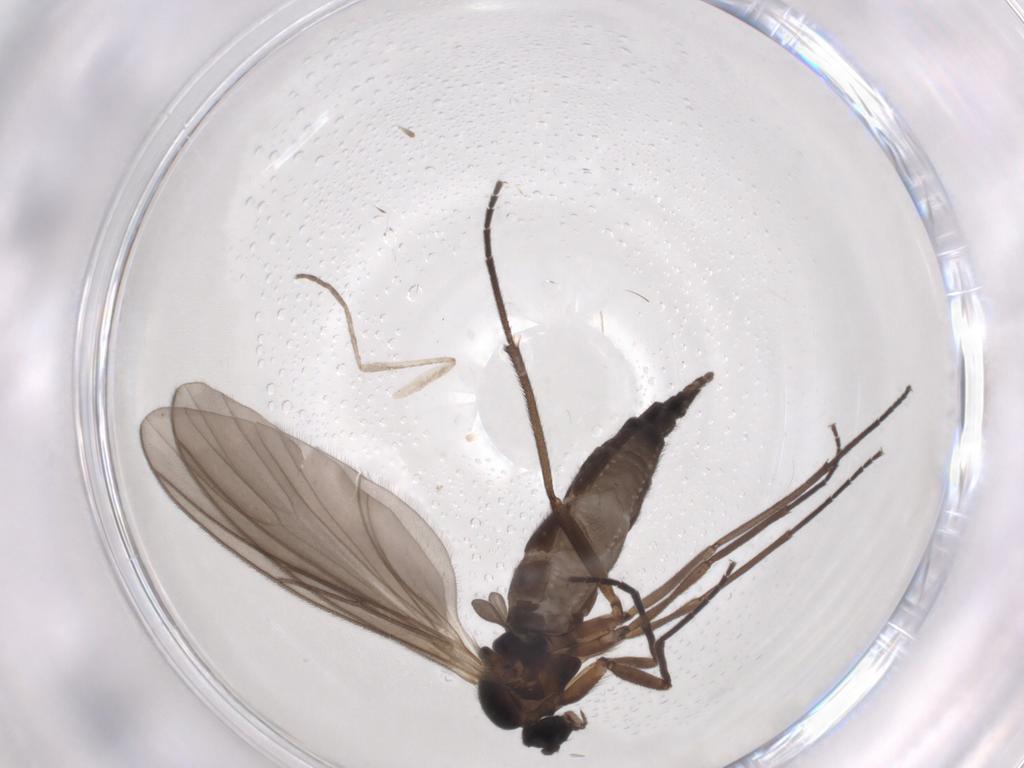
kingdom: Animalia
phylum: Arthropoda
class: Insecta
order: Diptera
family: Sciaridae
